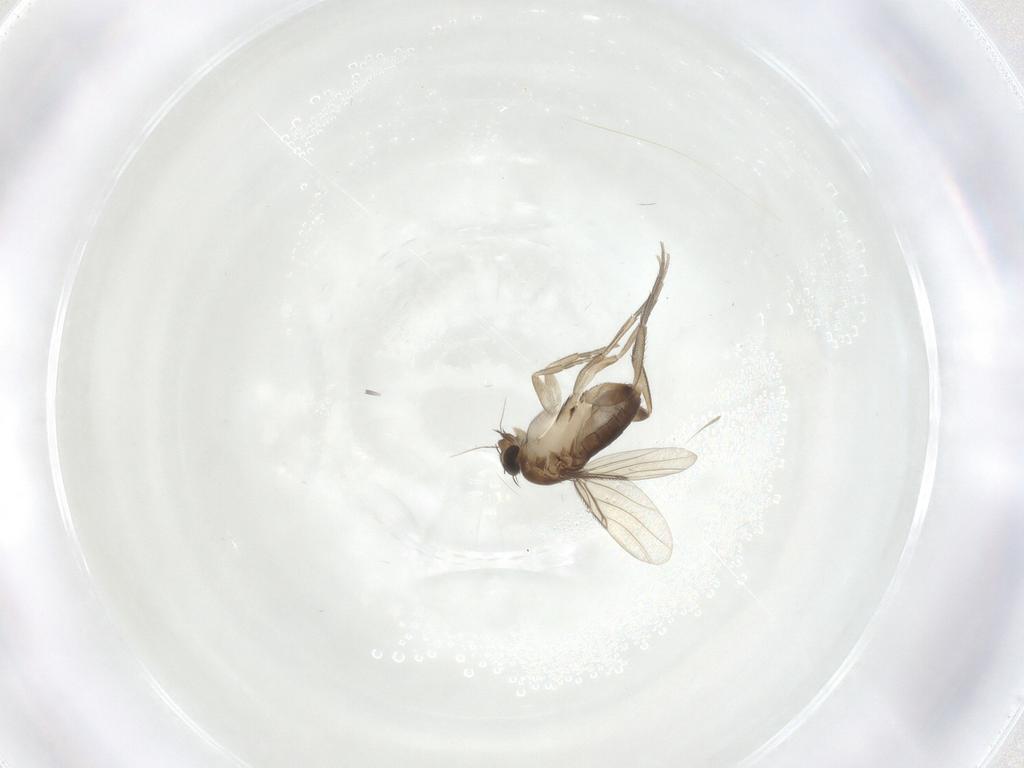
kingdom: Animalia
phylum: Arthropoda
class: Insecta
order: Diptera
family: Phoridae
